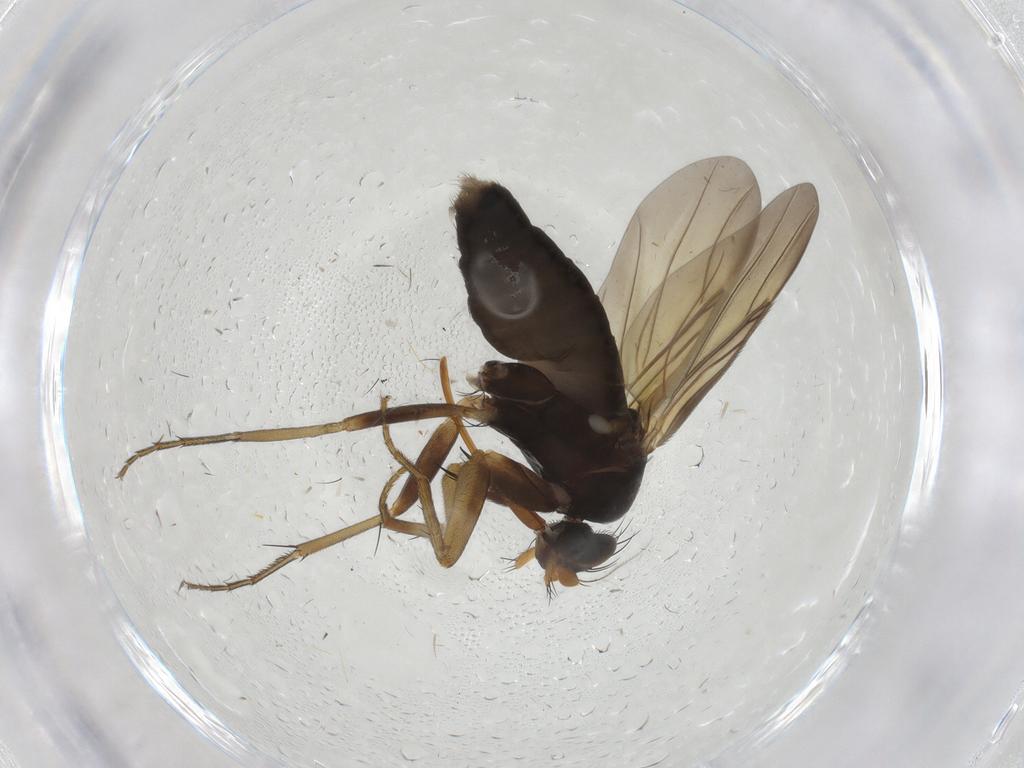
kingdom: Animalia
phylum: Arthropoda
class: Insecta
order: Diptera
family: Phoridae
